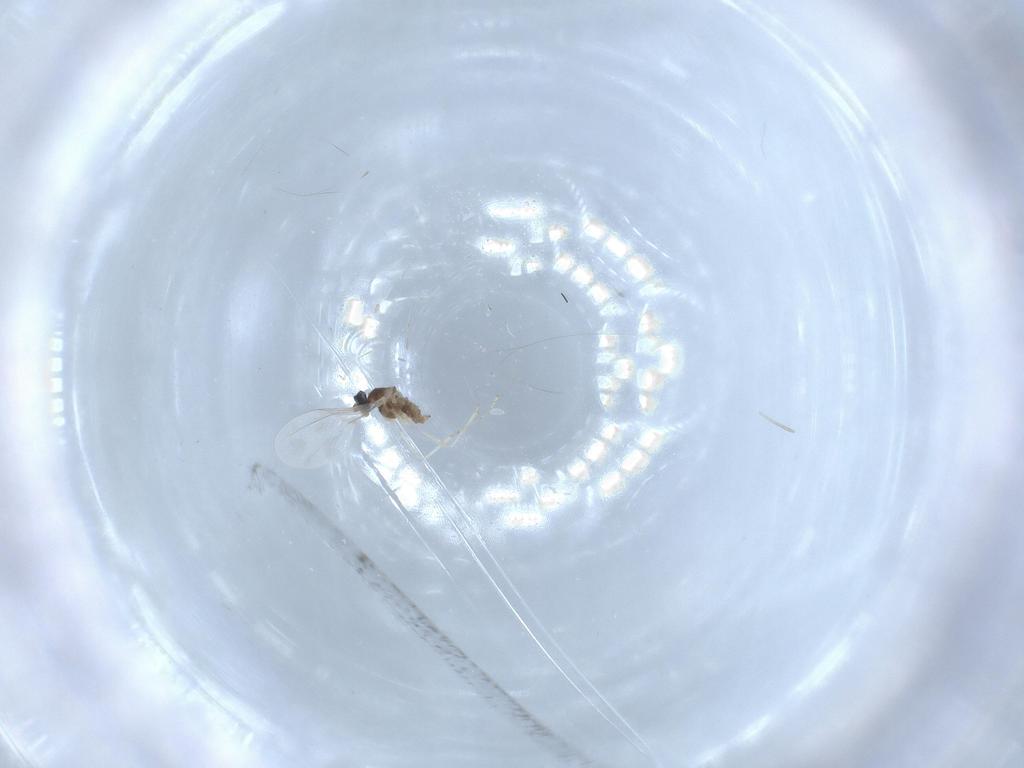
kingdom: Animalia
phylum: Arthropoda
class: Insecta
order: Diptera
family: Cecidomyiidae
